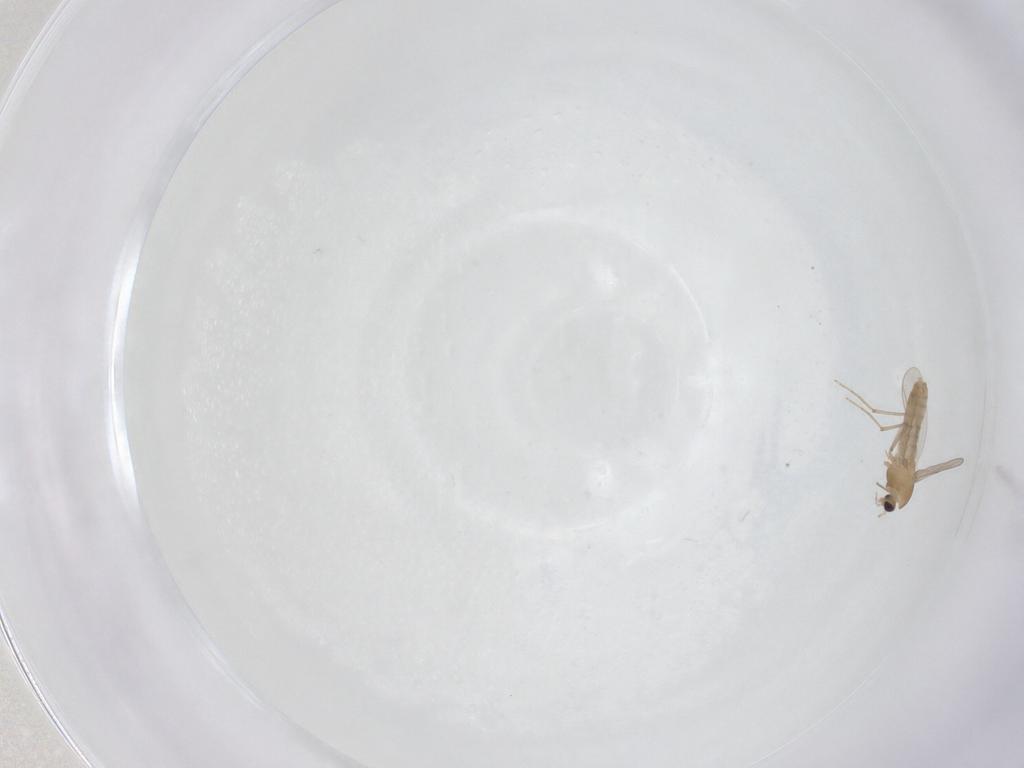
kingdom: Animalia
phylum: Arthropoda
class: Insecta
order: Diptera
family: Chironomidae
